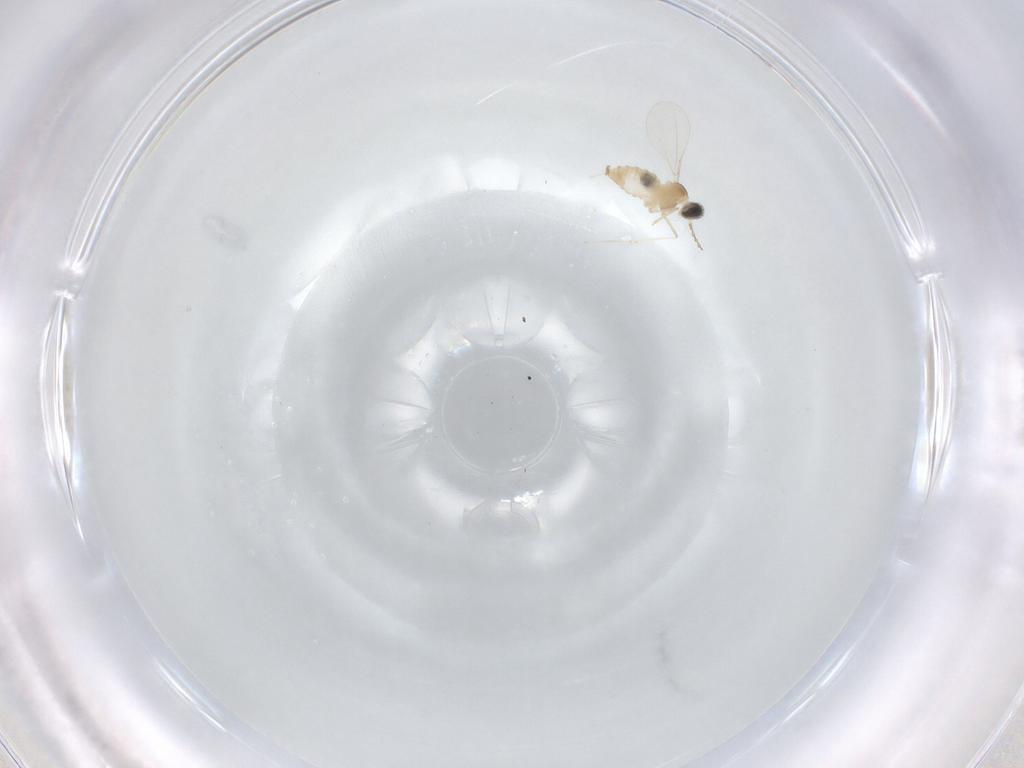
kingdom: Animalia
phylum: Arthropoda
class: Insecta
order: Diptera
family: Cecidomyiidae
